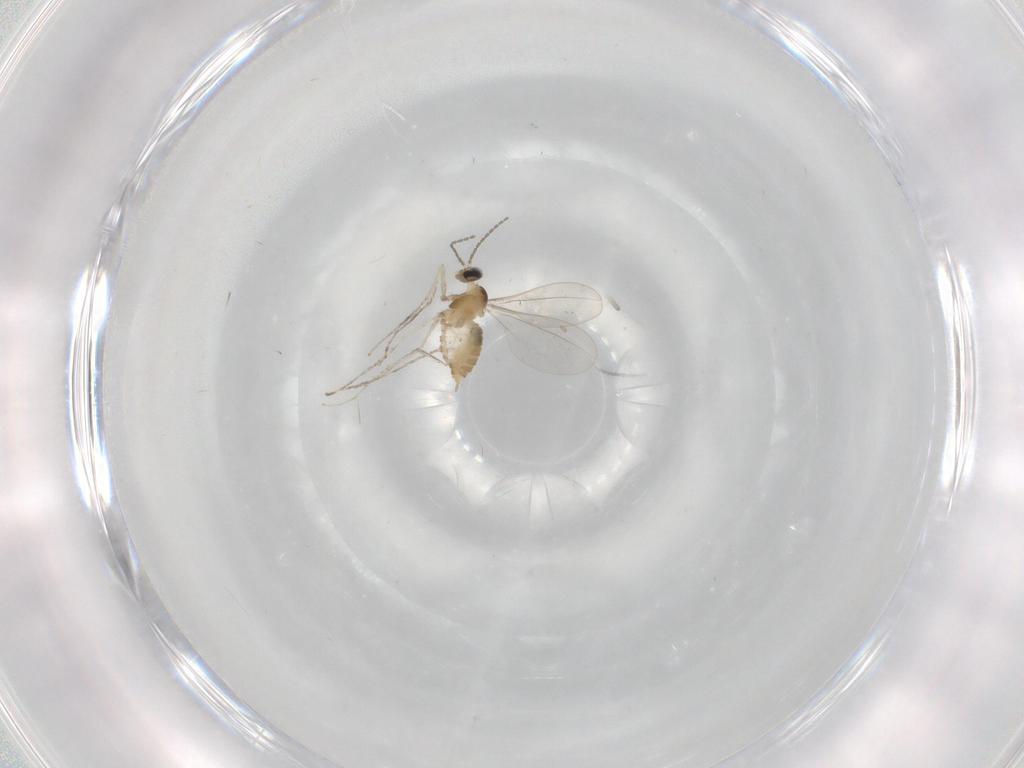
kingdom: Animalia
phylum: Arthropoda
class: Insecta
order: Diptera
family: Cecidomyiidae
